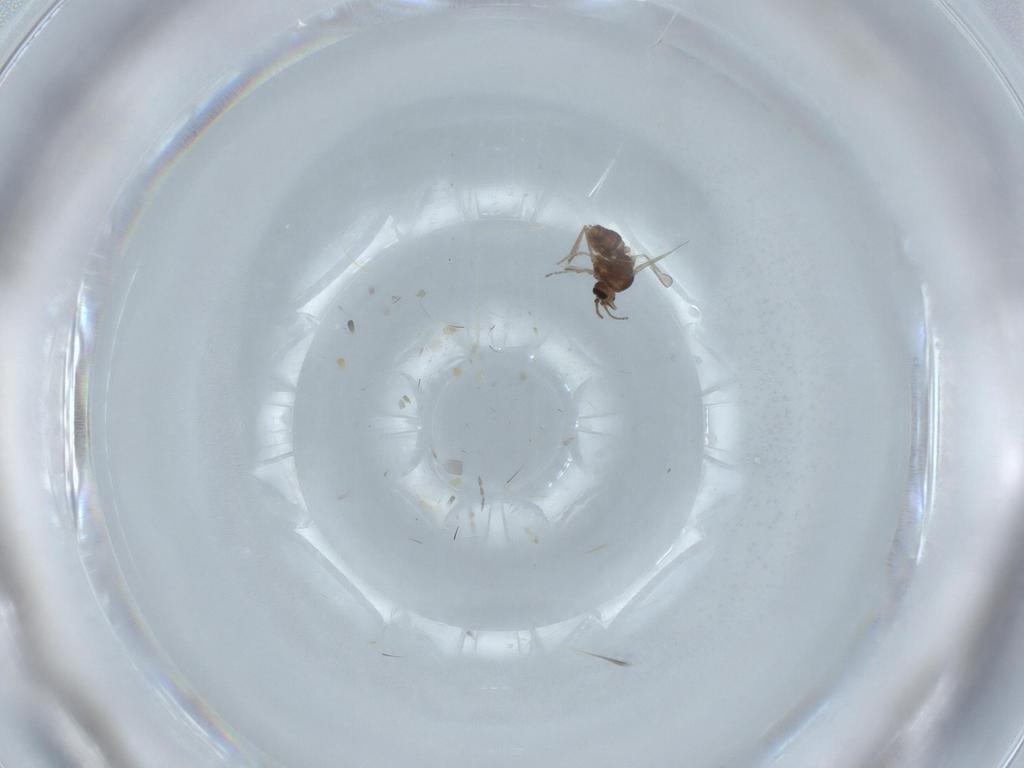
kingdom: Animalia
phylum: Arthropoda
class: Insecta
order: Diptera
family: Ceratopogonidae
